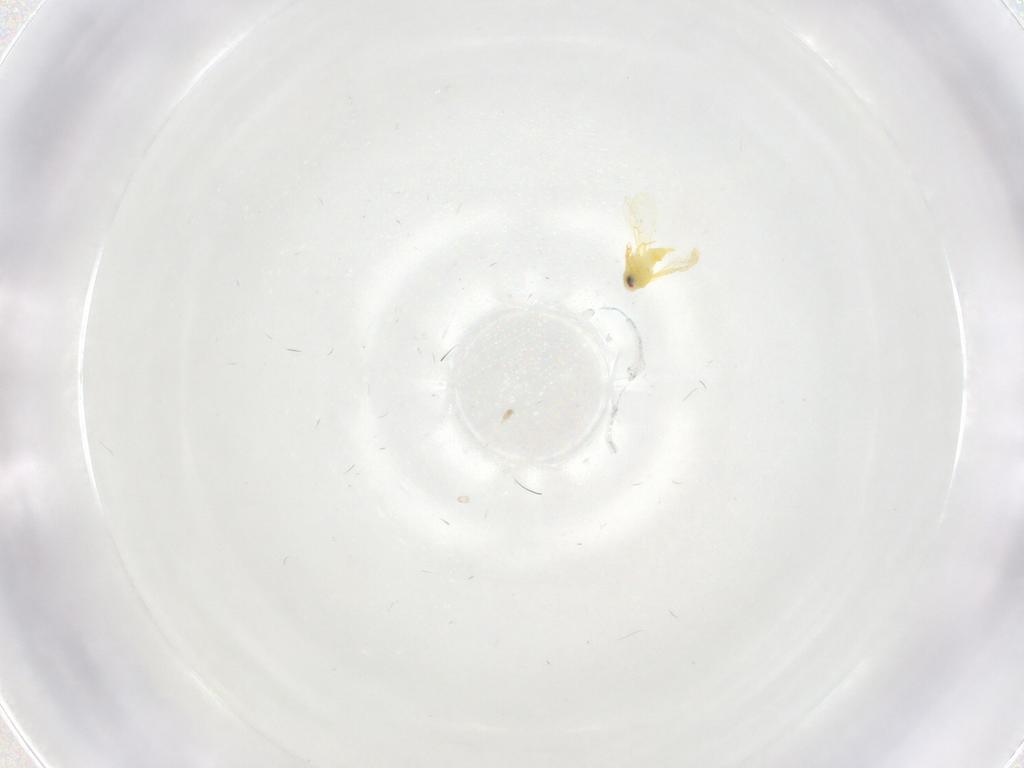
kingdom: Animalia
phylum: Arthropoda
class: Insecta
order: Hemiptera
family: Aleyrodidae
